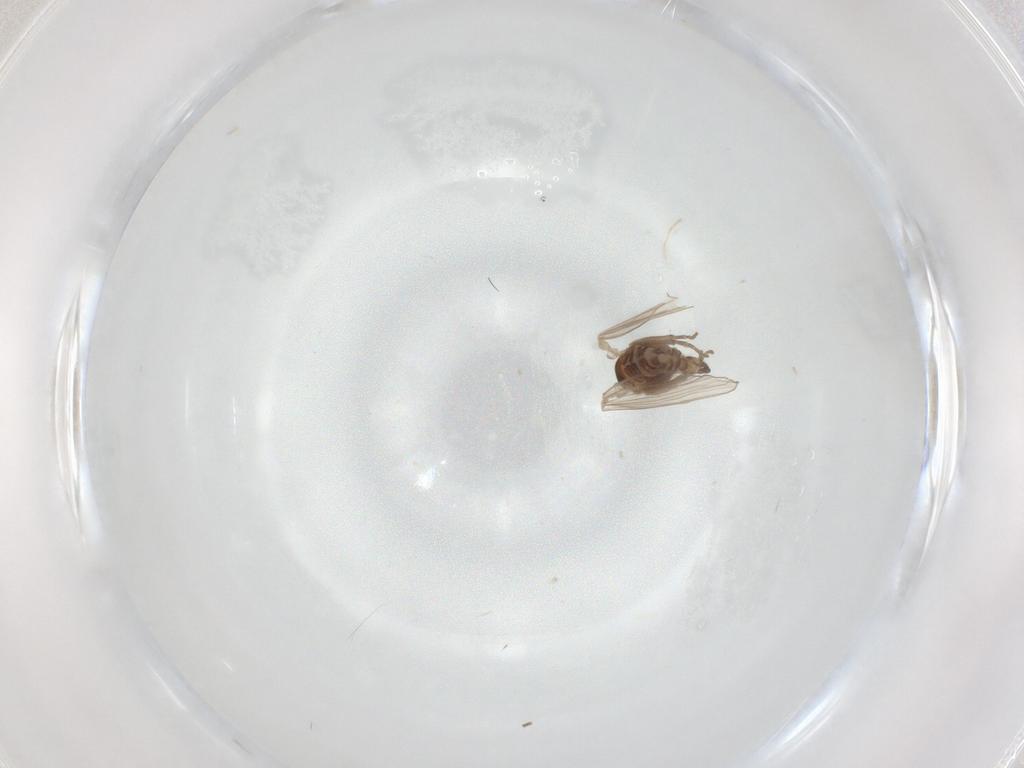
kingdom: Animalia
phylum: Arthropoda
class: Insecta
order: Diptera
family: Psychodidae
